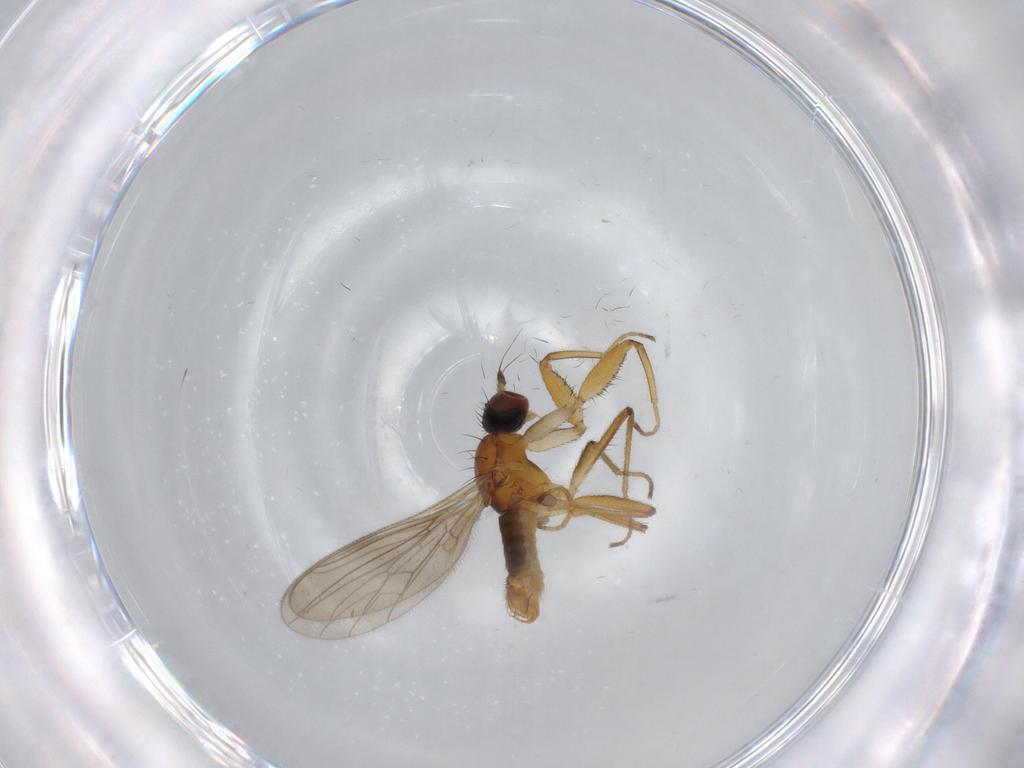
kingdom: Animalia
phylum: Arthropoda
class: Insecta
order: Diptera
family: Empididae
